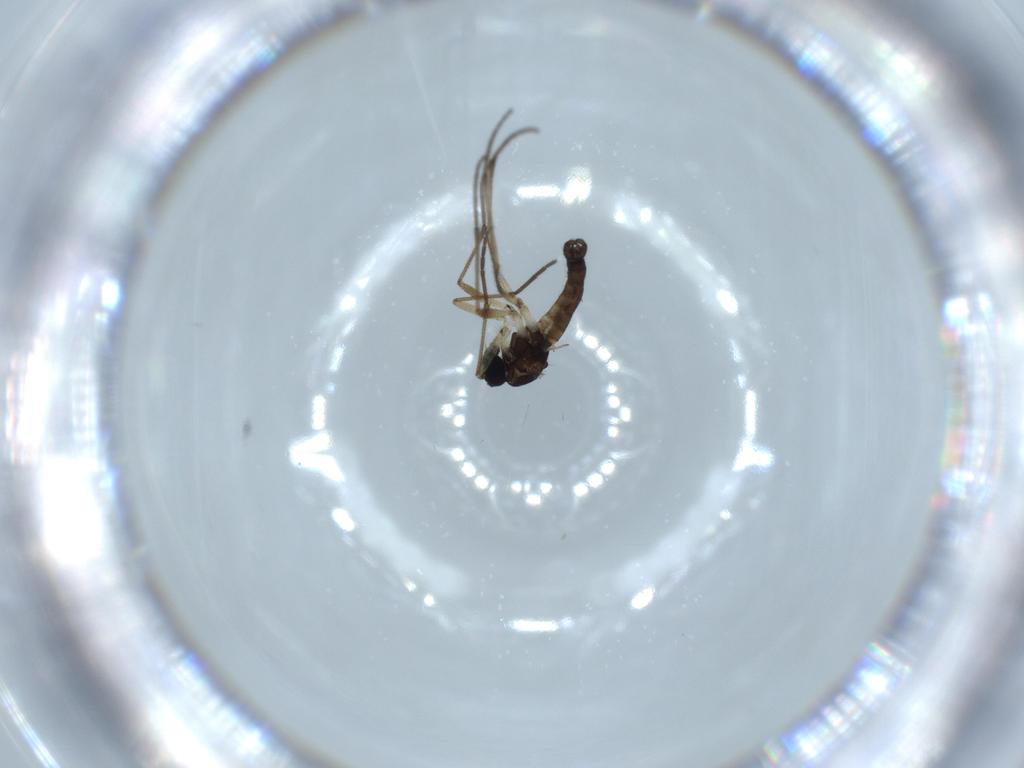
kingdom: Animalia
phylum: Arthropoda
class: Insecta
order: Diptera
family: Sciaridae
